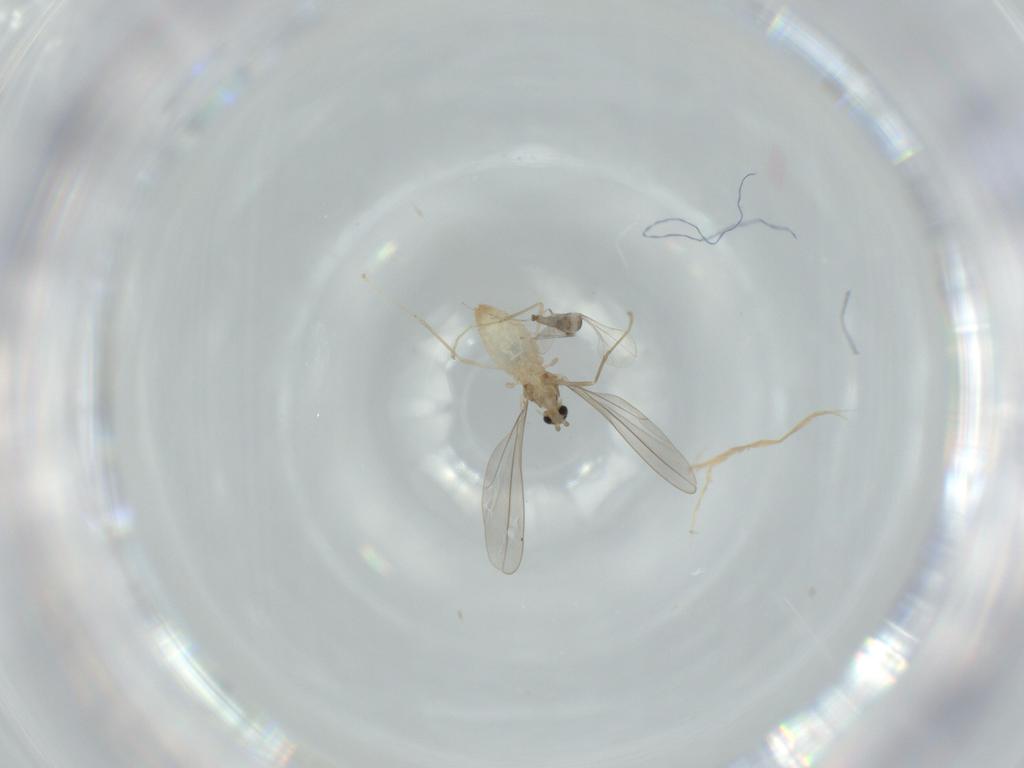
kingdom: Animalia
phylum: Arthropoda
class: Insecta
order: Diptera
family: Cecidomyiidae
